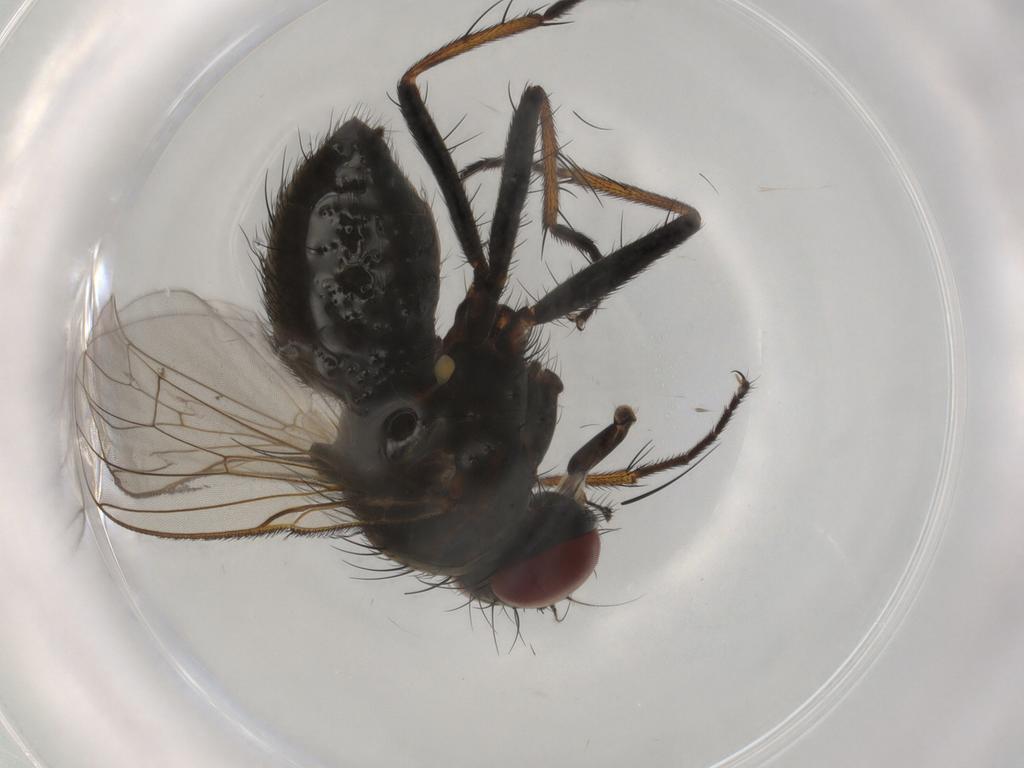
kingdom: Animalia
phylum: Arthropoda
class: Insecta
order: Diptera
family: Muscidae
